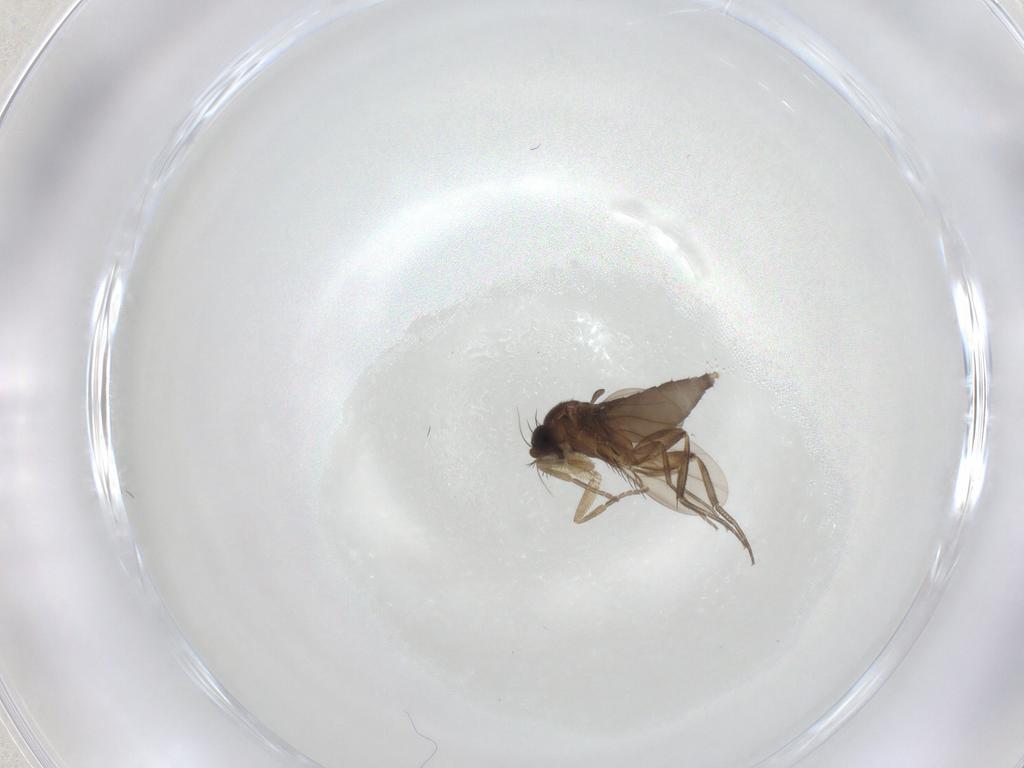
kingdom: Animalia
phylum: Arthropoda
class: Insecta
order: Diptera
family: Phoridae
